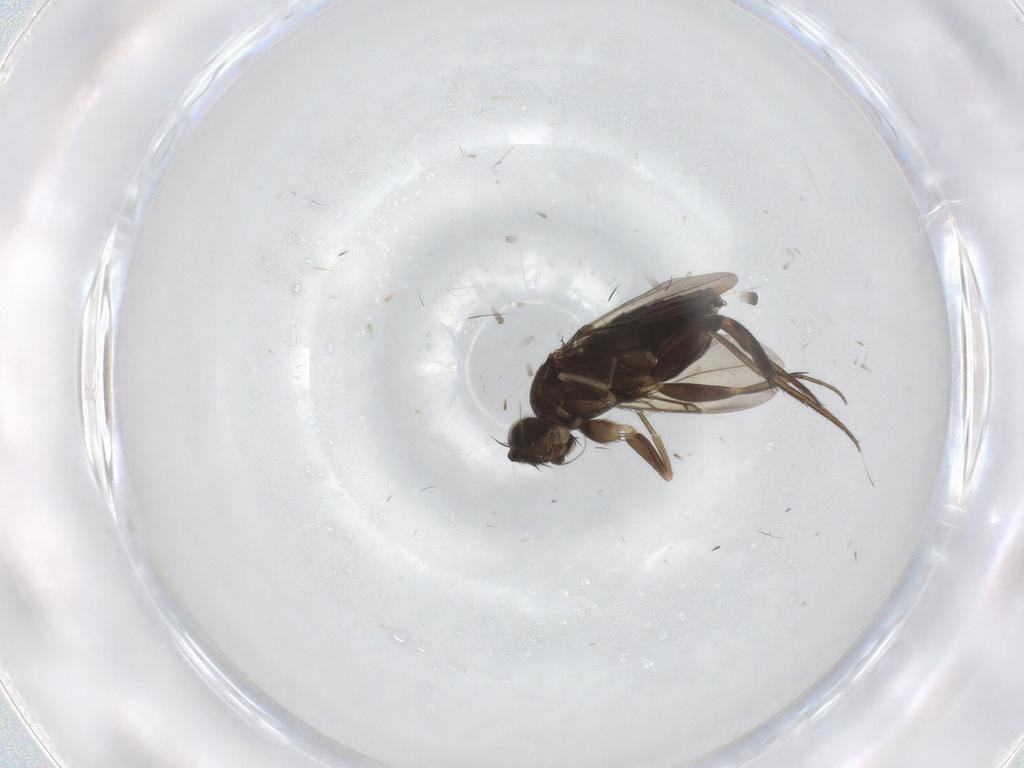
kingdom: Animalia
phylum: Arthropoda
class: Insecta
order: Diptera
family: Phoridae
